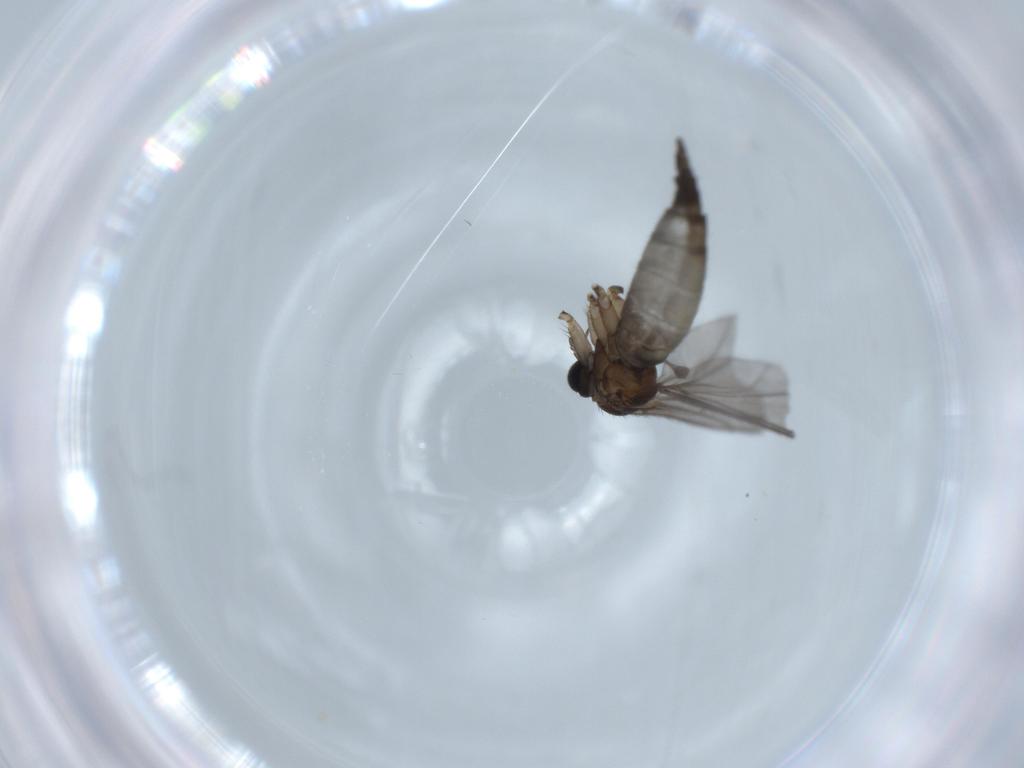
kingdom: Animalia
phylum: Arthropoda
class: Insecta
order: Diptera
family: Sciaridae
